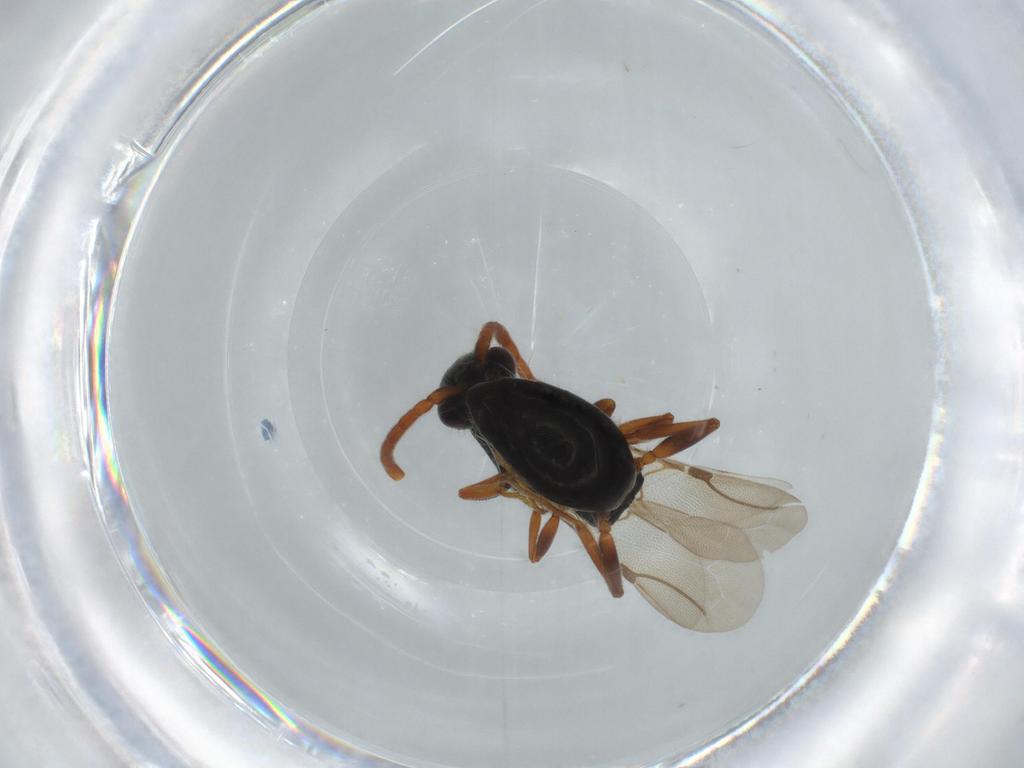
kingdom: Animalia
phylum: Arthropoda
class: Insecta
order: Hymenoptera
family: Bethylidae
